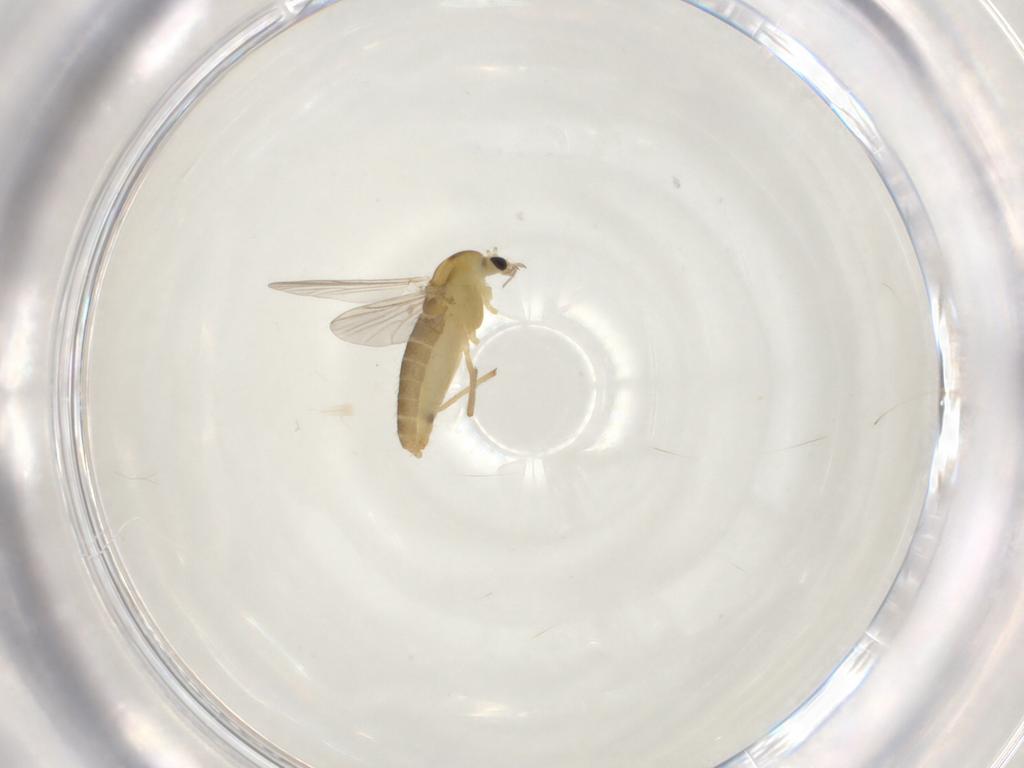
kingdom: Animalia
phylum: Arthropoda
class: Insecta
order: Diptera
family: Chironomidae
